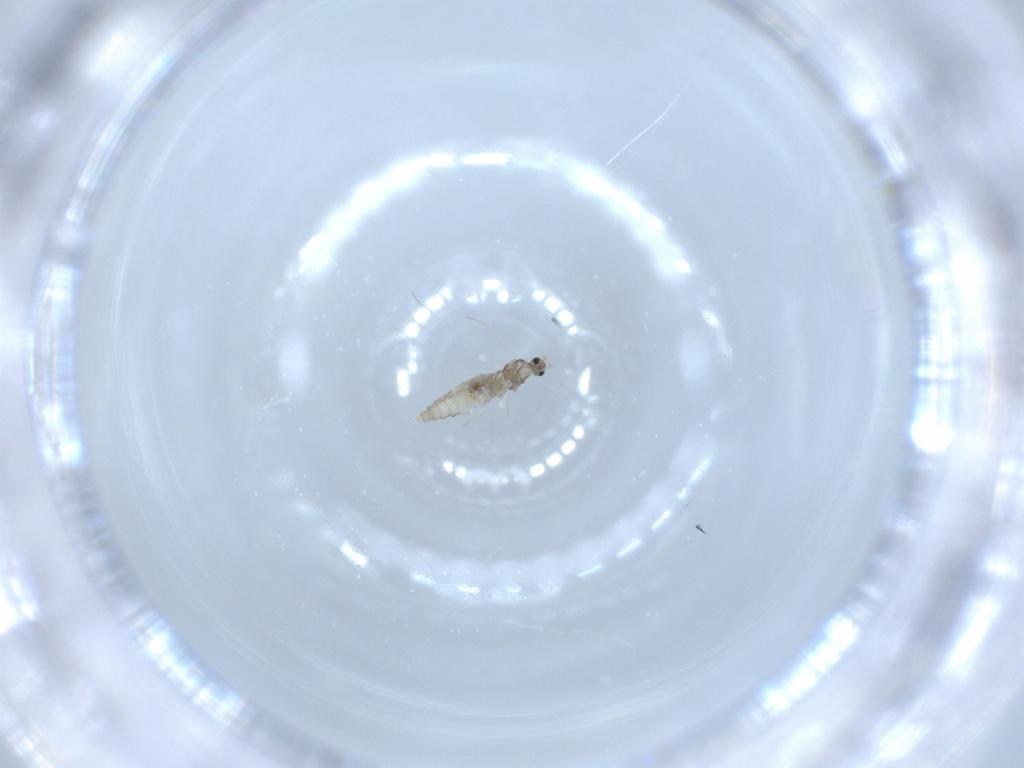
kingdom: Animalia
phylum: Arthropoda
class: Insecta
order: Diptera
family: Cecidomyiidae
